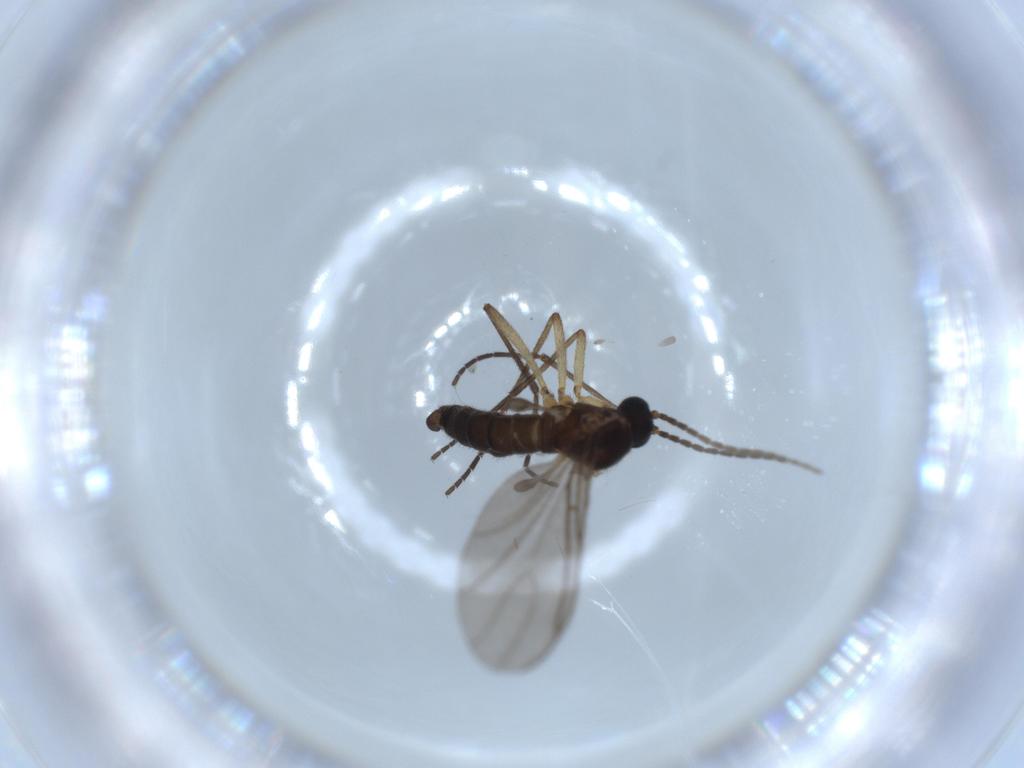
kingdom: Animalia
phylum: Arthropoda
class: Insecta
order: Diptera
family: Sciaridae
